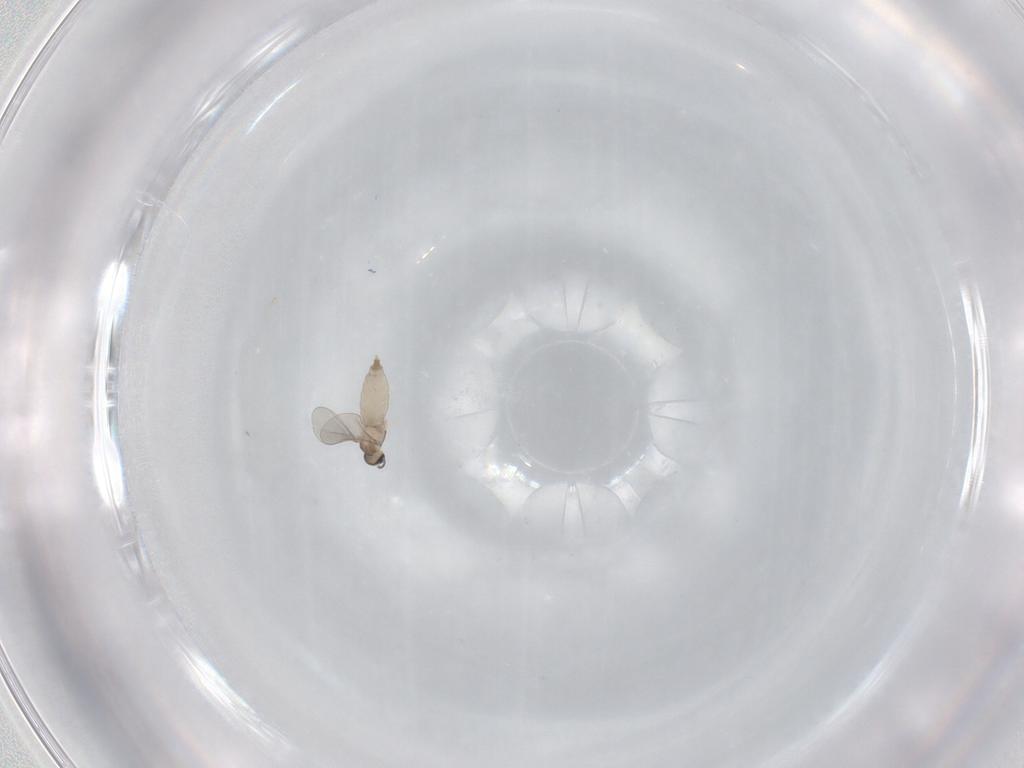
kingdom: Animalia
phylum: Arthropoda
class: Insecta
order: Diptera
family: Cecidomyiidae
